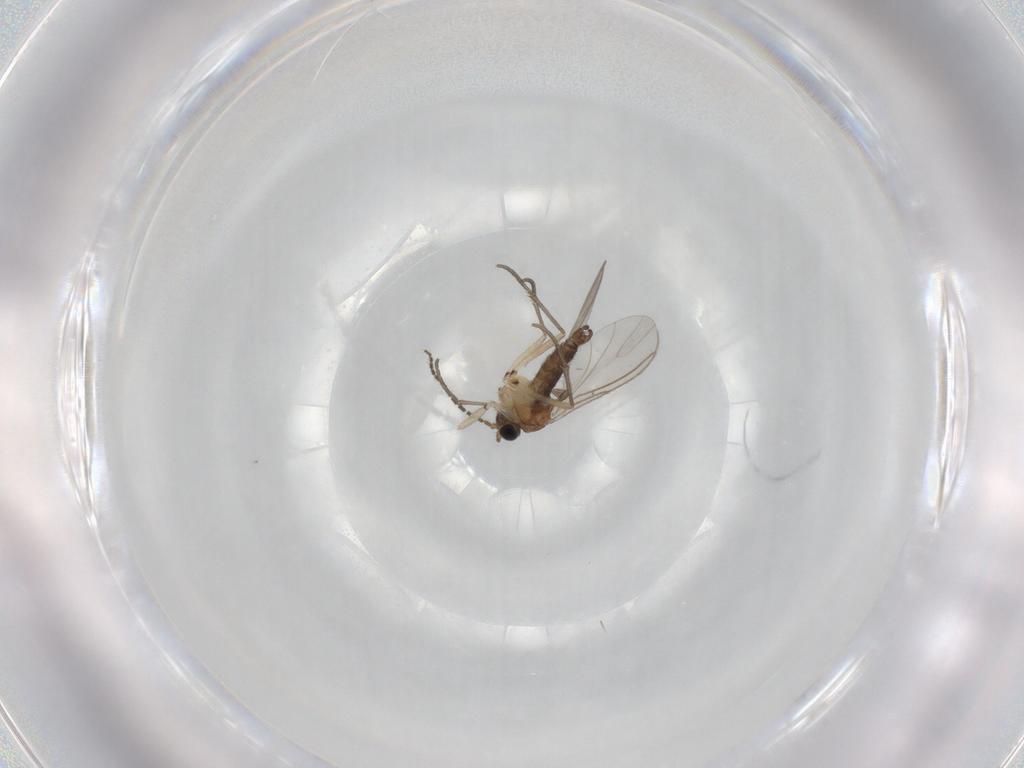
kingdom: Animalia
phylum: Arthropoda
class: Insecta
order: Diptera
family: Sciaridae
